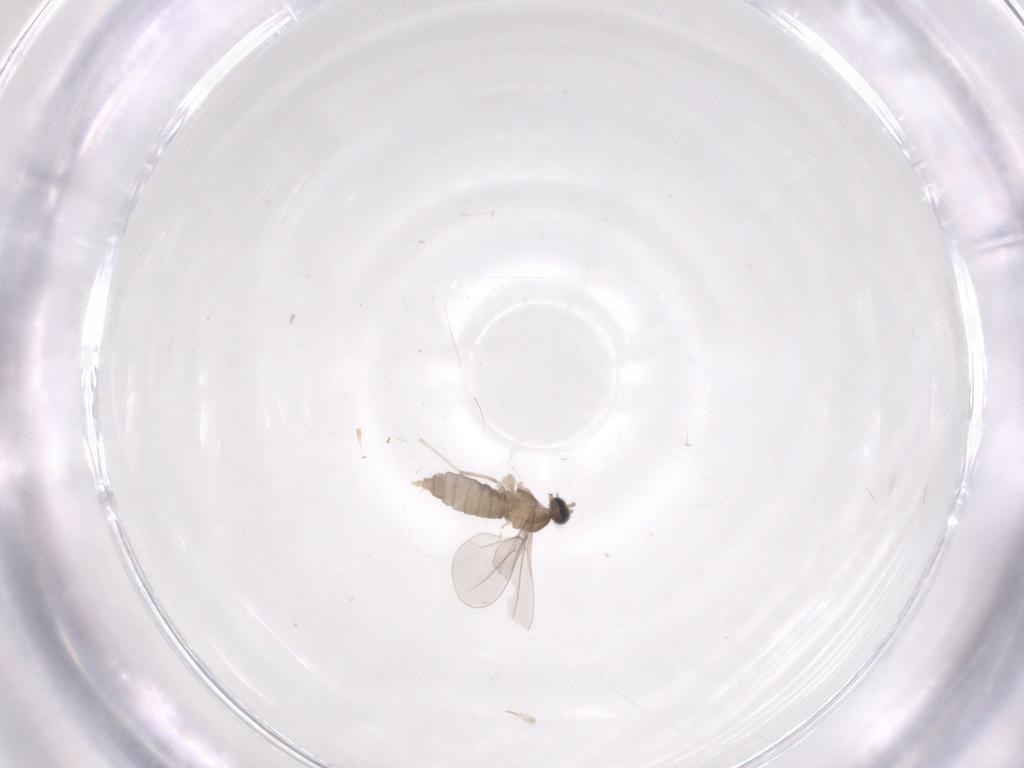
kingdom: Animalia
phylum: Arthropoda
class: Insecta
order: Diptera
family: Cecidomyiidae
